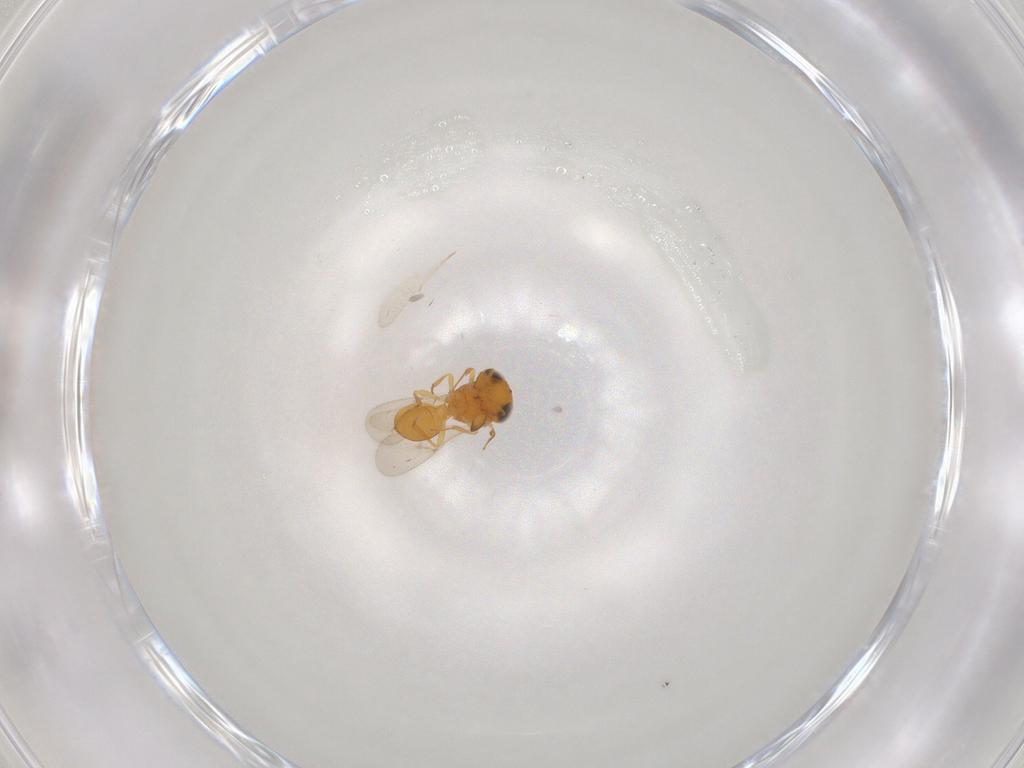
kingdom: Animalia
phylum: Arthropoda
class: Insecta
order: Hymenoptera
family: Scelionidae
